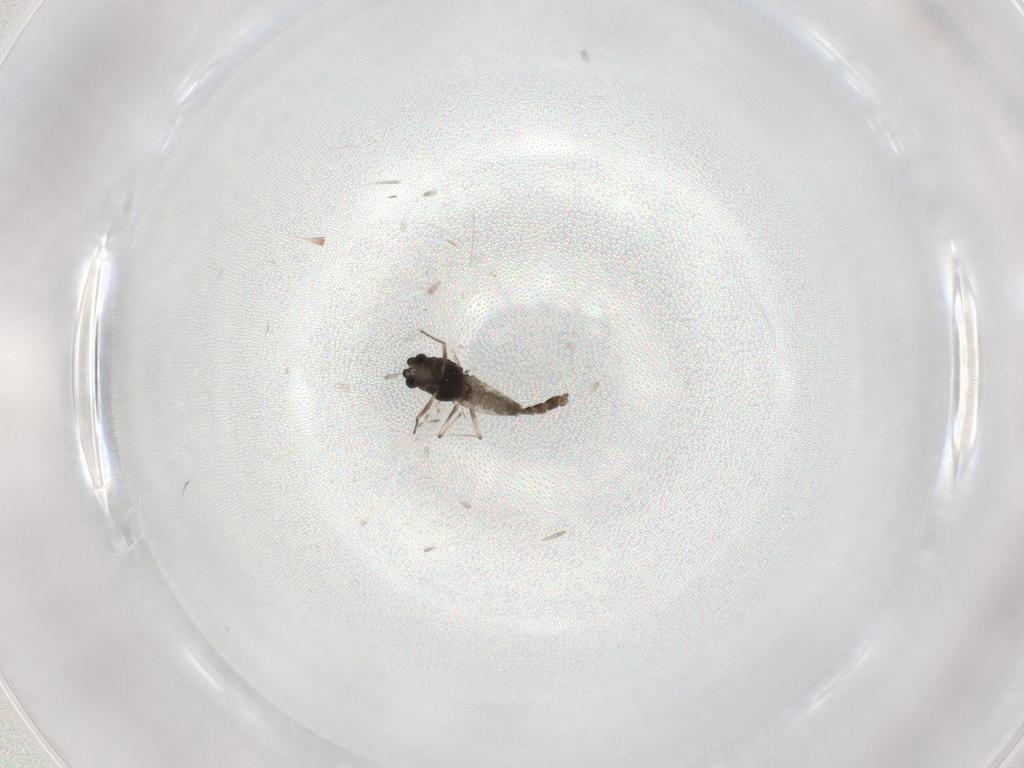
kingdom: Animalia
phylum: Arthropoda
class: Insecta
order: Diptera
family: Chironomidae
